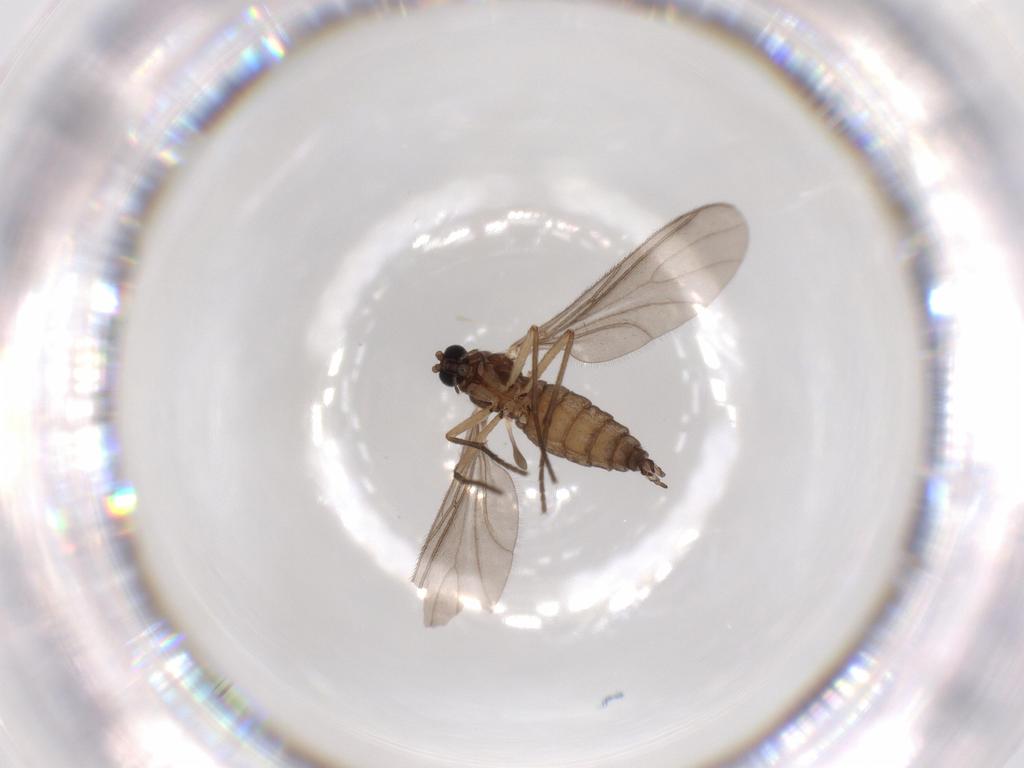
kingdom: Animalia
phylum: Arthropoda
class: Insecta
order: Diptera
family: Sciaridae
